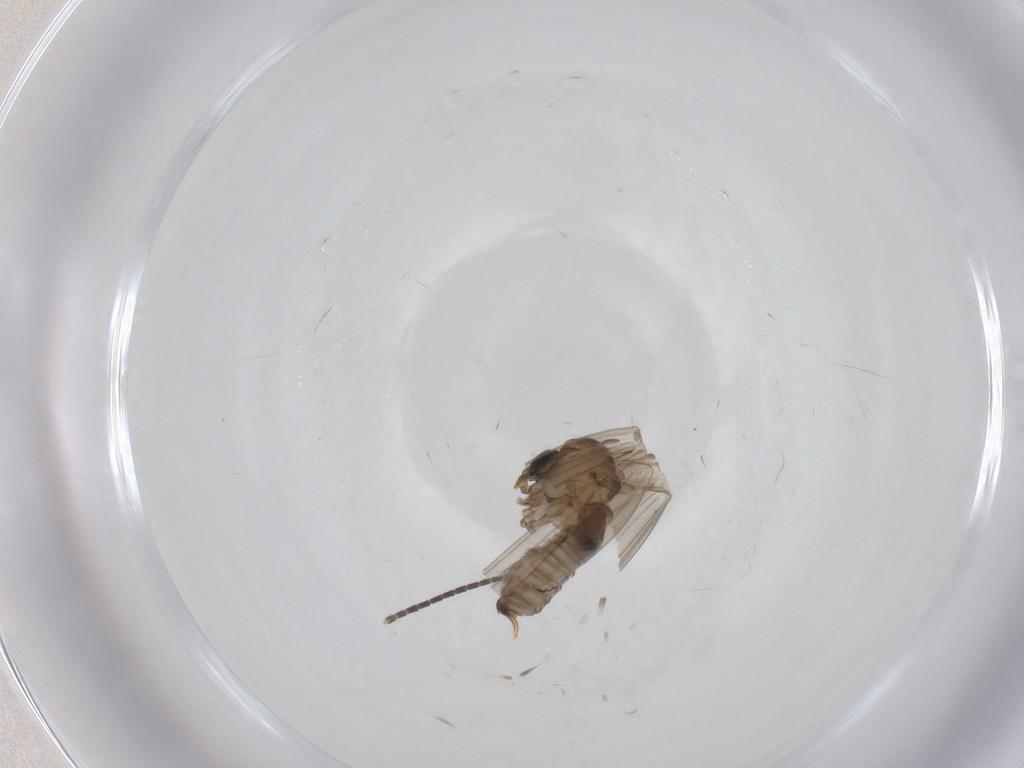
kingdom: Animalia
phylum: Arthropoda
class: Insecta
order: Diptera
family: Psychodidae
